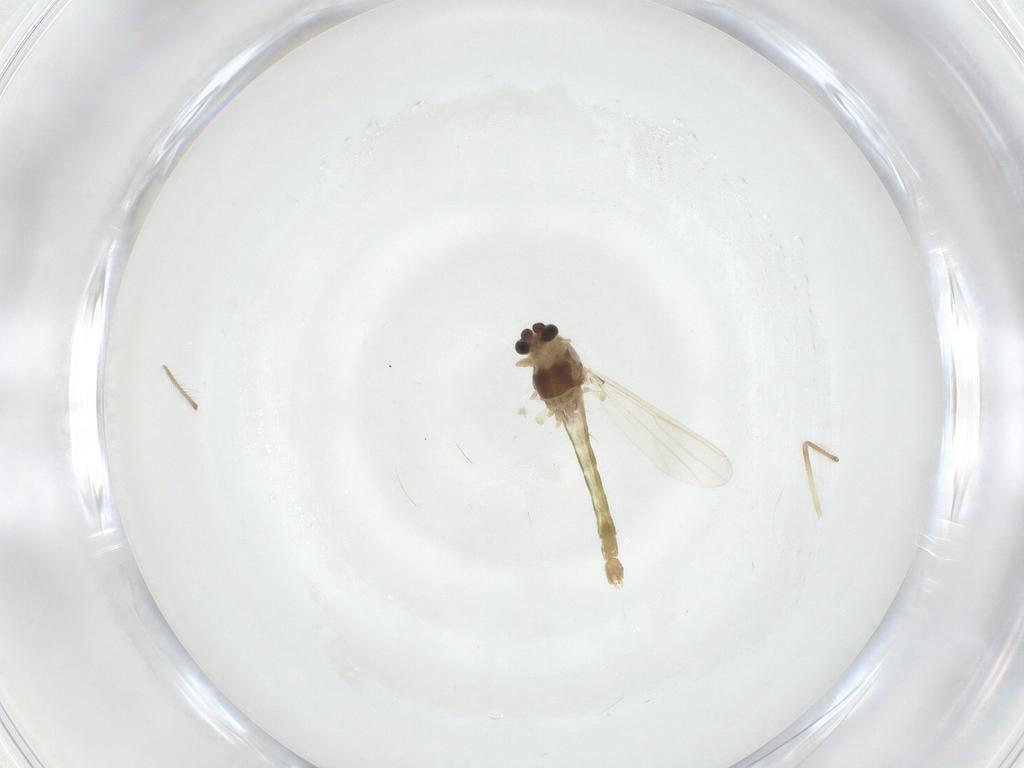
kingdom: Animalia
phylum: Arthropoda
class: Insecta
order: Diptera
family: Chironomidae
